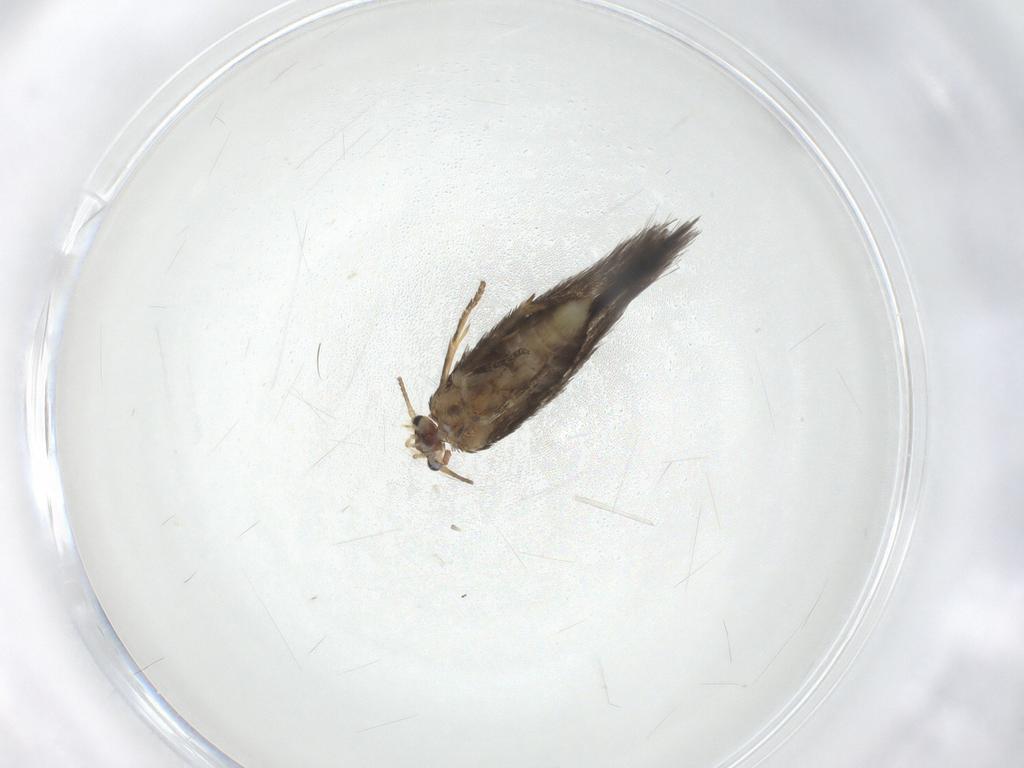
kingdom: Animalia
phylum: Arthropoda
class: Insecta
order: Lepidoptera
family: Nepticulidae
